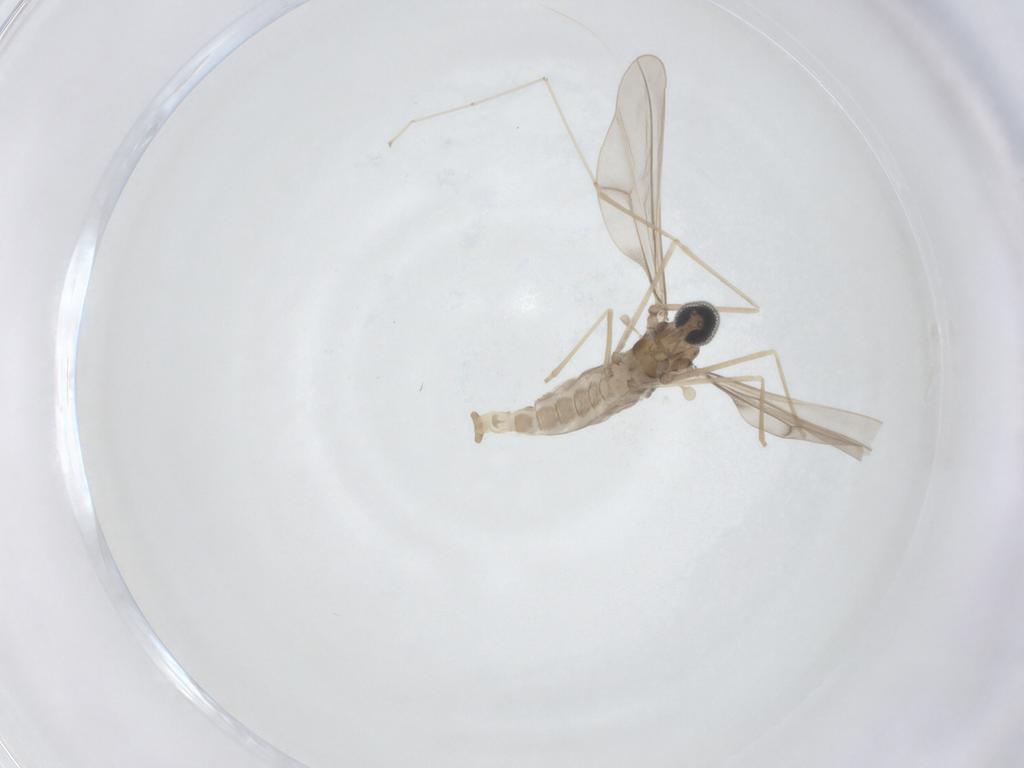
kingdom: Animalia
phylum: Arthropoda
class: Insecta
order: Diptera
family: Cecidomyiidae
